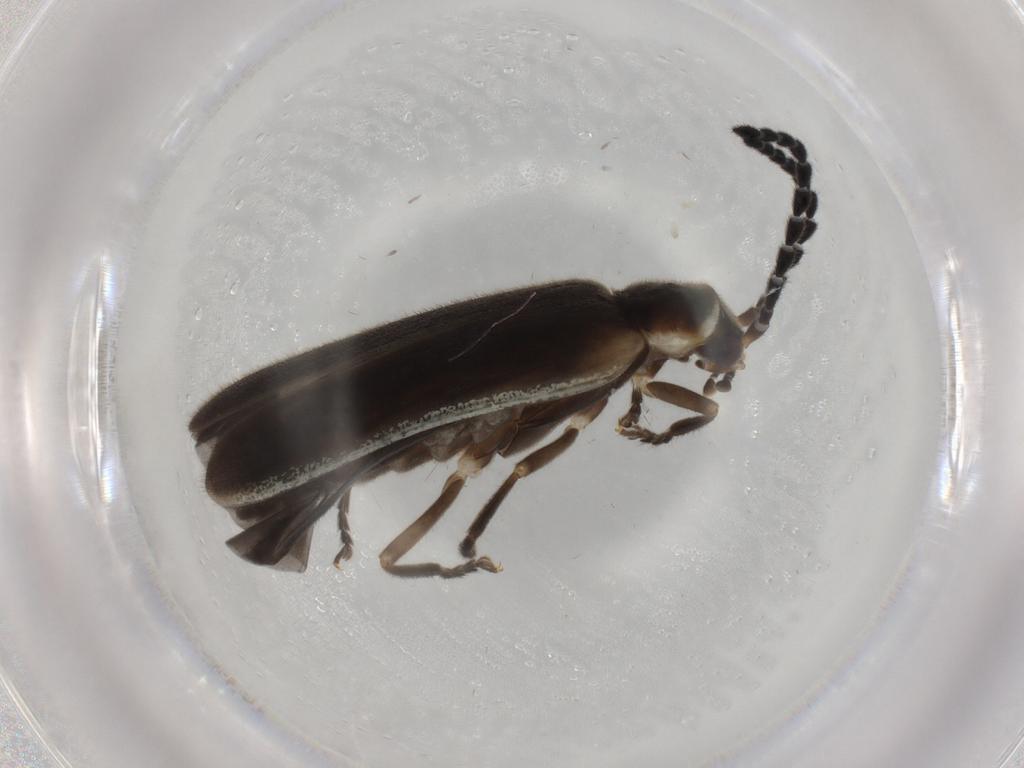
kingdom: Animalia
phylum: Arthropoda
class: Insecta
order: Coleoptera
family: Cantharidae
